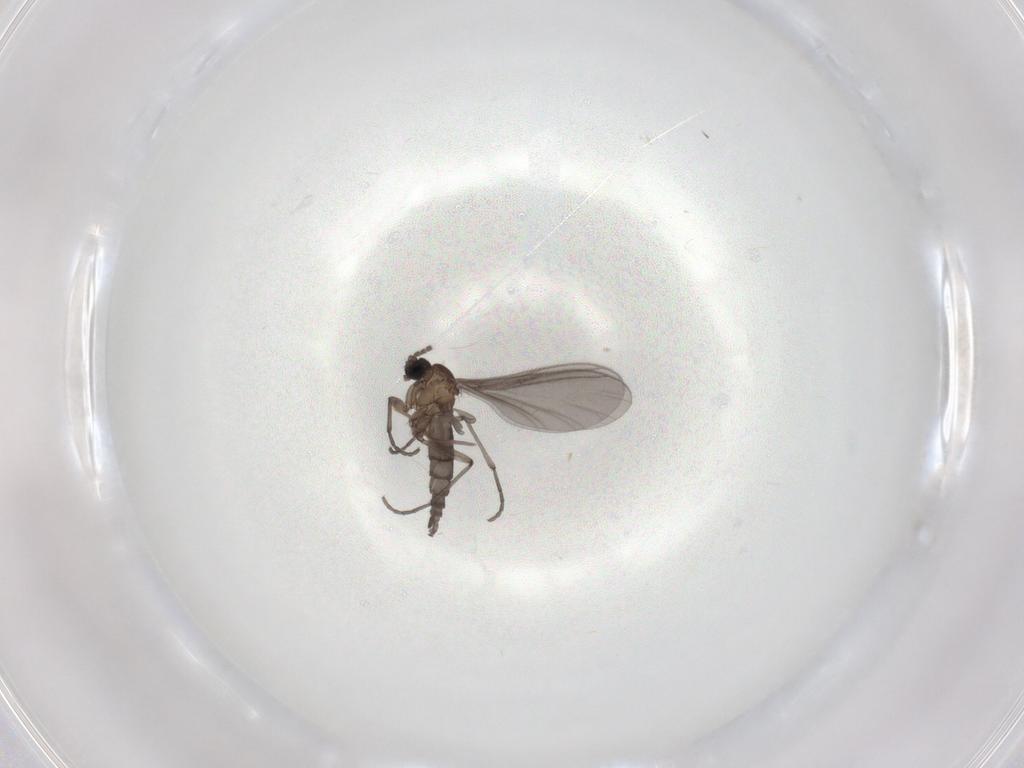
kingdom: Animalia
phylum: Arthropoda
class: Insecta
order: Diptera
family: Sciaridae
